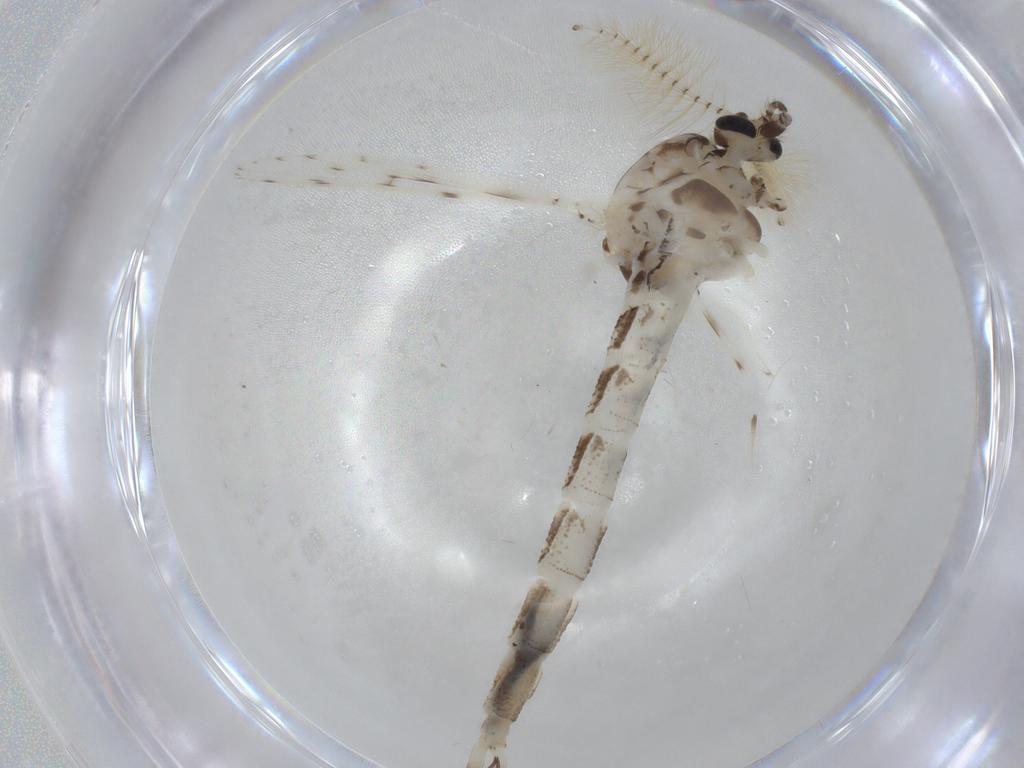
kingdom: Animalia
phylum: Arthropoda
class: Insecta
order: Diptera
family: Chaoboridae
